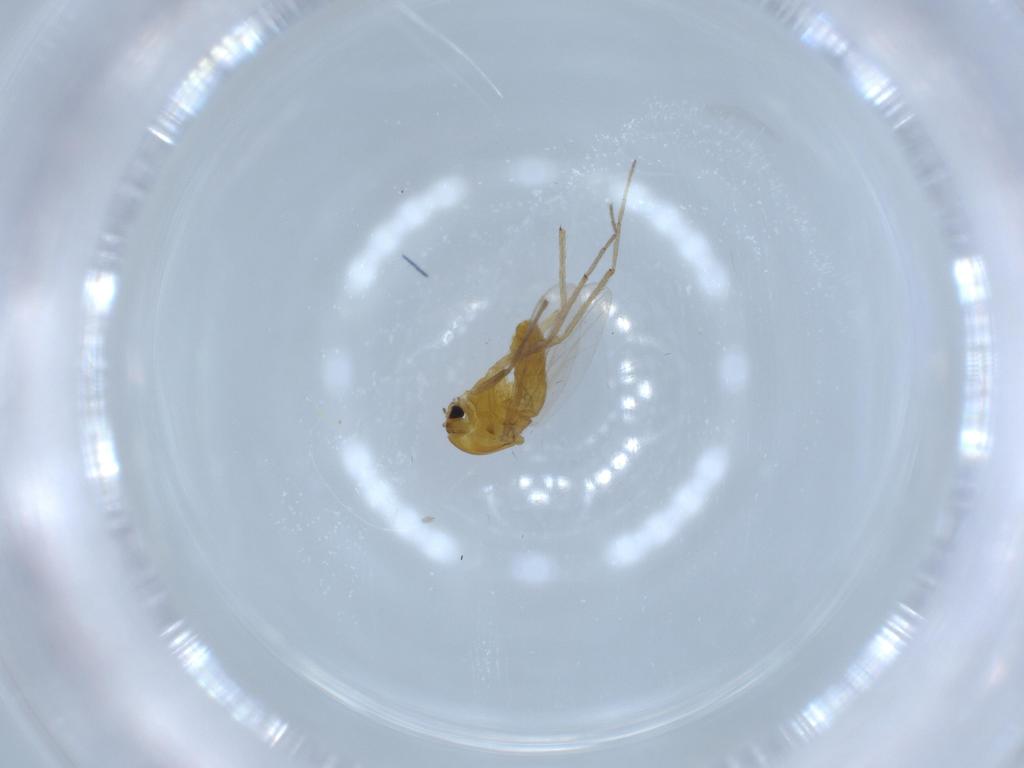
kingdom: Animalia
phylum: Arthropoda
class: Insecta
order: Diptera
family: Chironomidae
